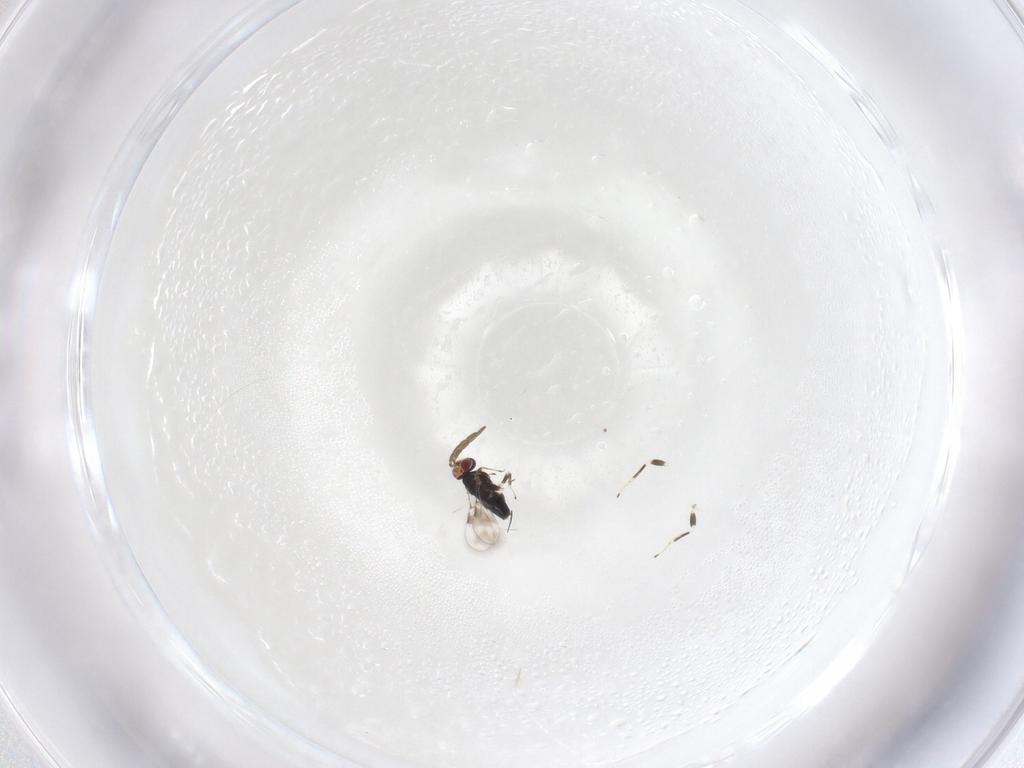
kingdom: Animalia
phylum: Arthropoda
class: Insecta
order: Hymenoptera
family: Azotidae
